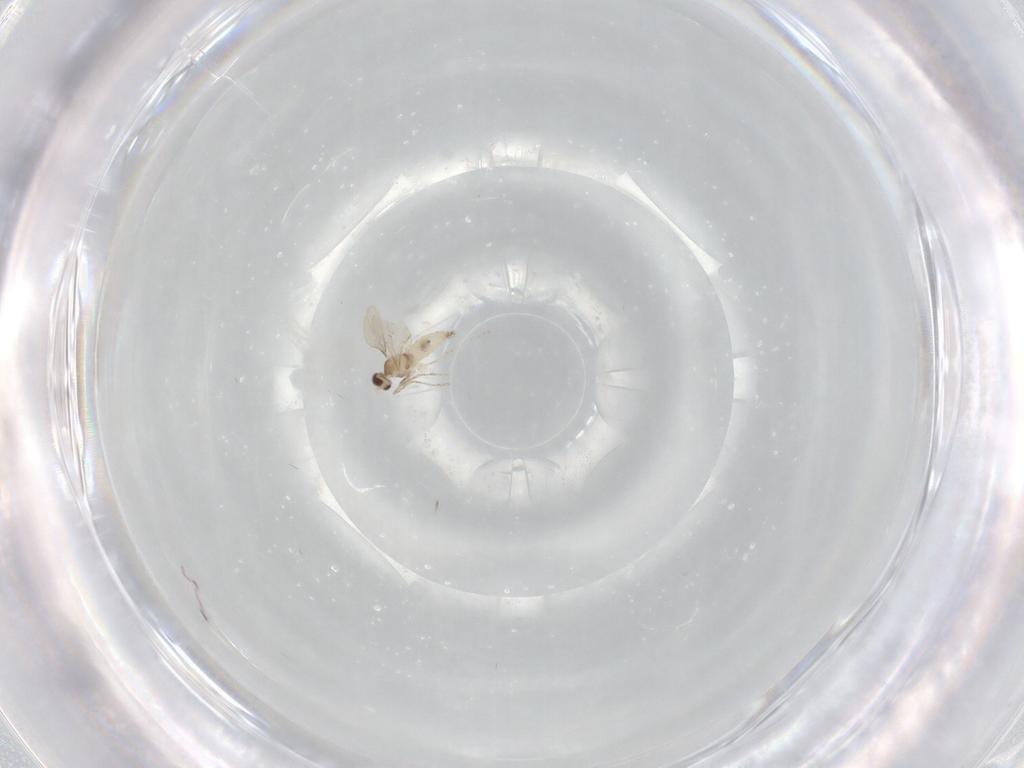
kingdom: Animalia
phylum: Arthropoda
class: Insecta
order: Diptera
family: Cecidomyiidae
